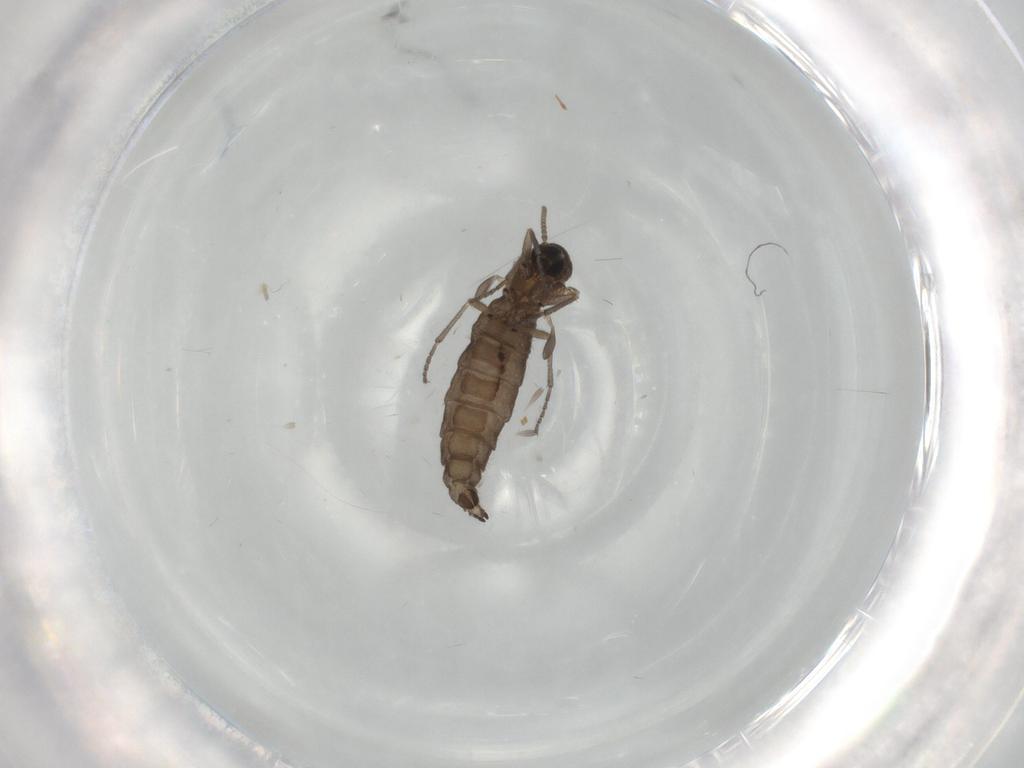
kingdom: Animalia
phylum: Arthropoda
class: Insecta
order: Diptera
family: Sciaridae
